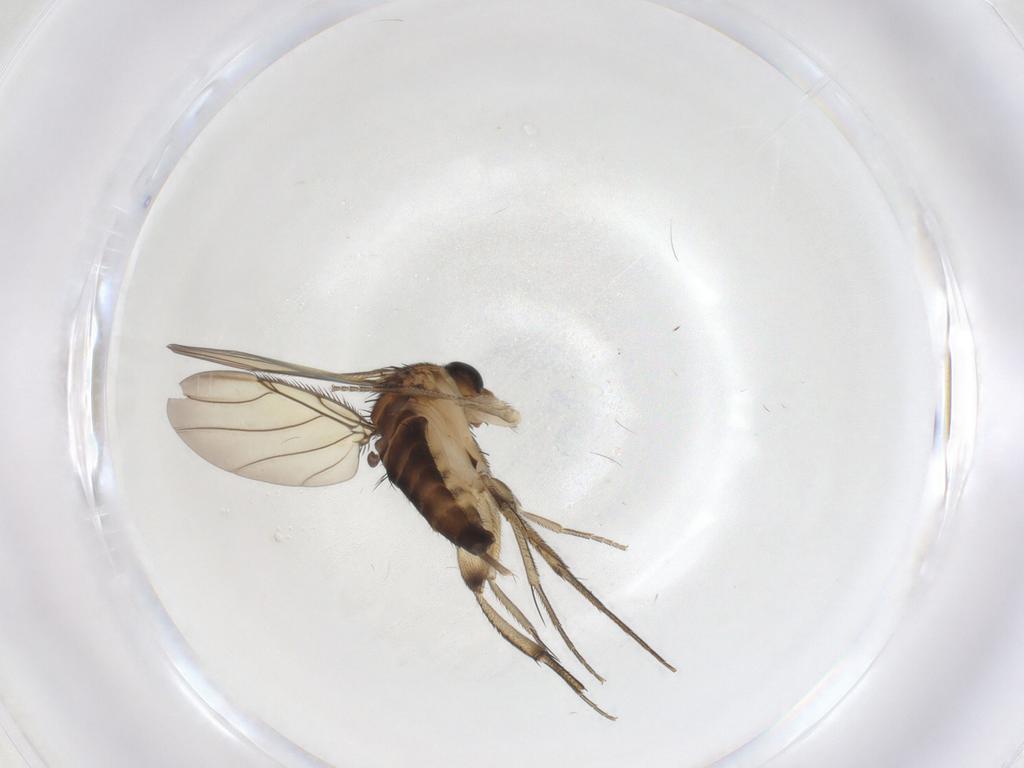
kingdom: Animalia
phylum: Arthropoda
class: Insecta
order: Diptera
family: Phoridae
